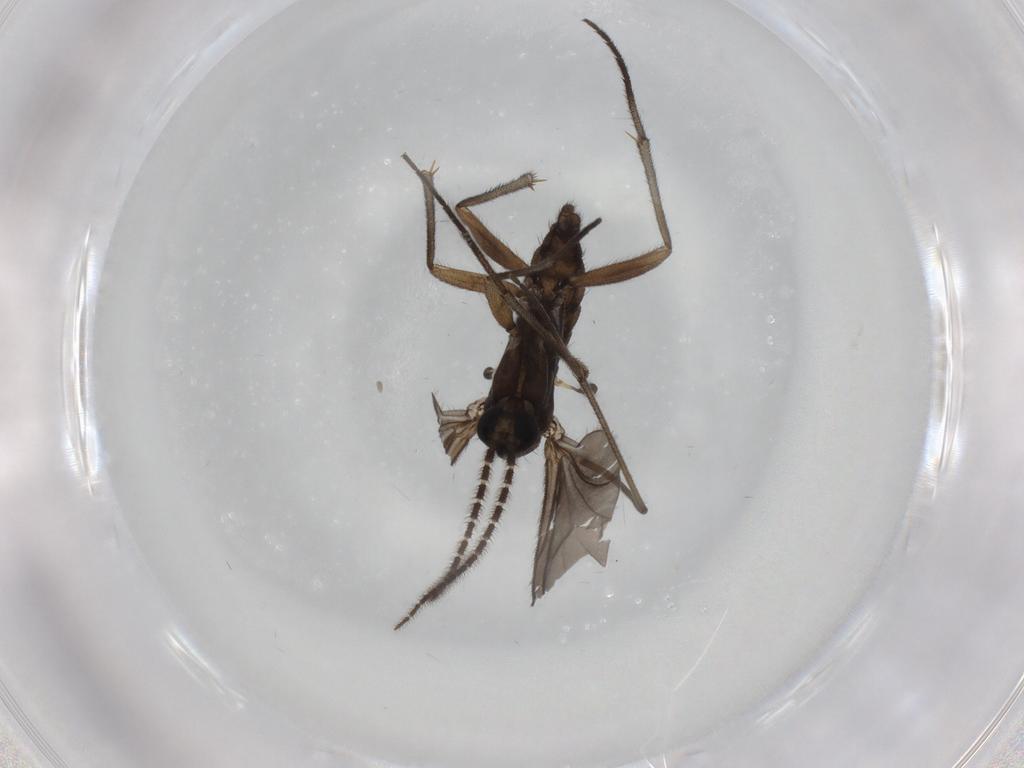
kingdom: Animalia
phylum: Arthropoda
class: Insecta
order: Diptera
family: Sciaridae
